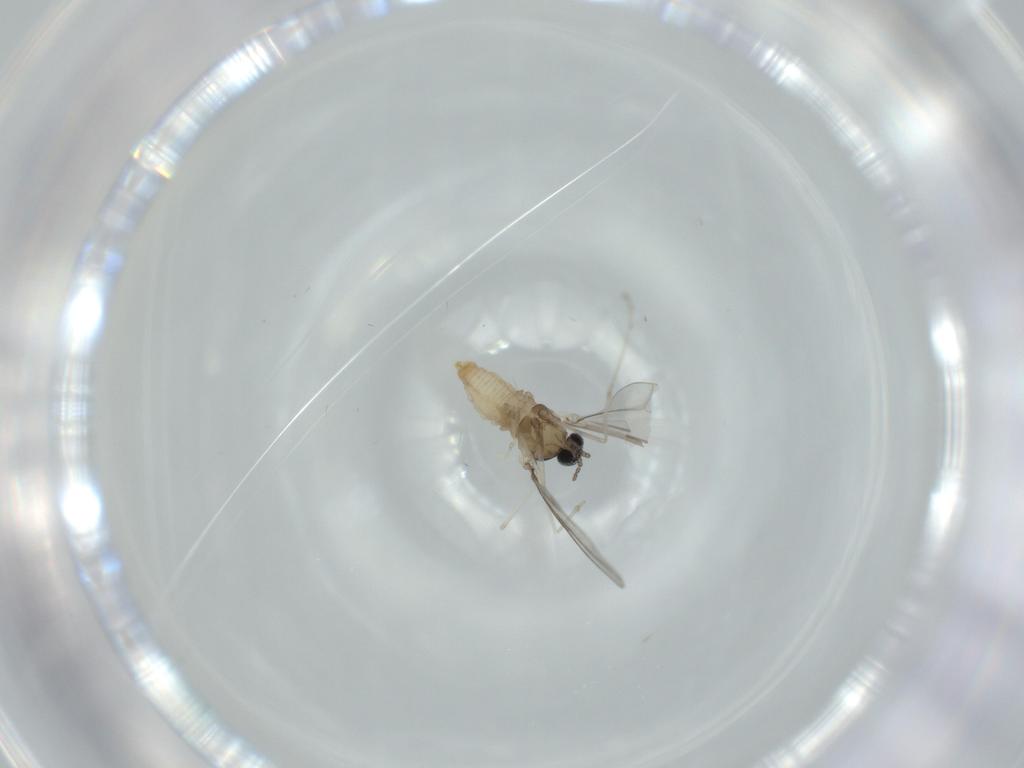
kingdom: Animalia
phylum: Arthropoda
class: Insecta
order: Diptera
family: Cecidomyiidae
